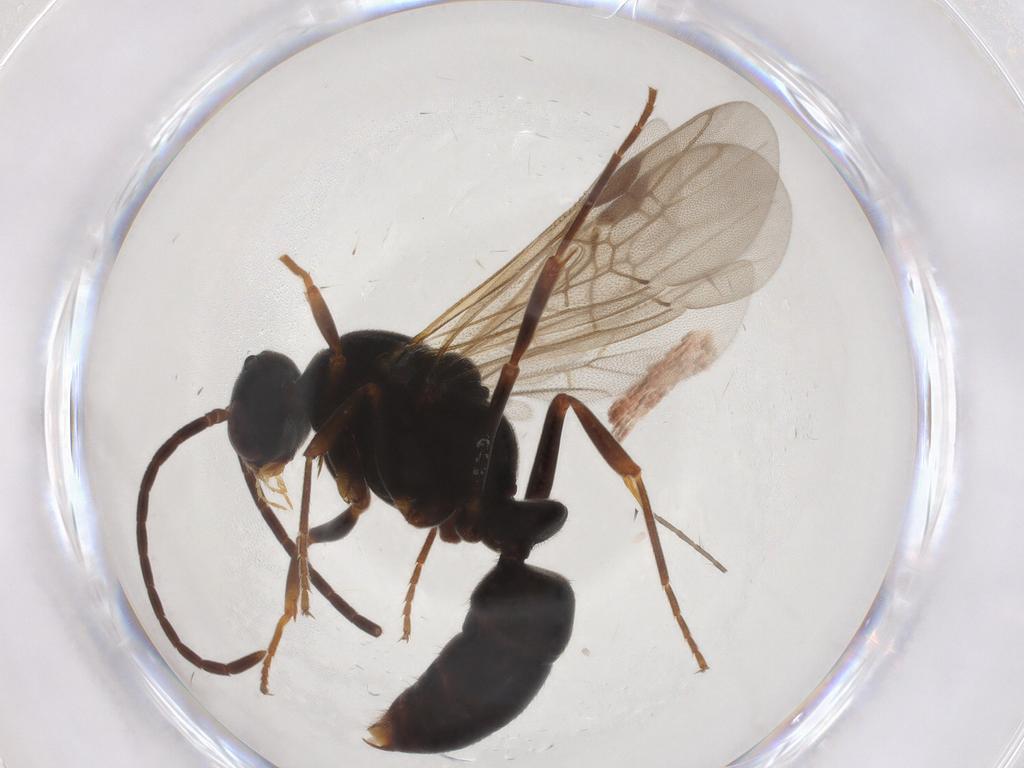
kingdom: Animalia
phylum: Arthropoda
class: Insecta
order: Hymenoptera
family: Formicidae
